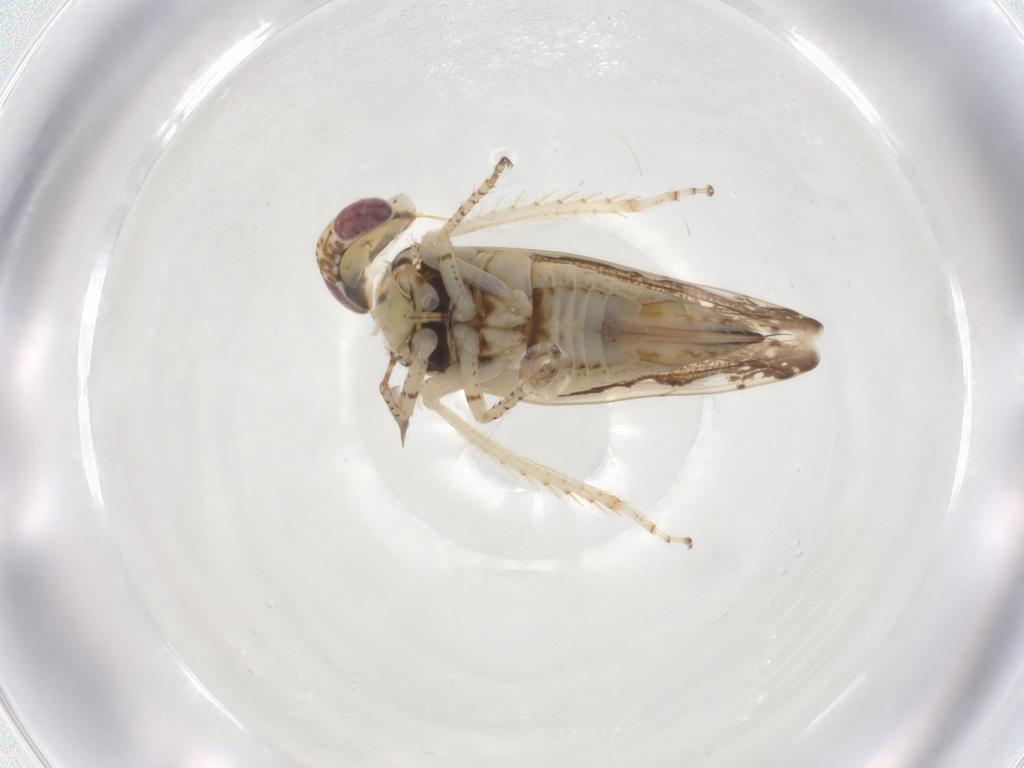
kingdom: Animalia
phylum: Arthropoda
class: Insecta
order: Hemiptera
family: Cicadellidae
